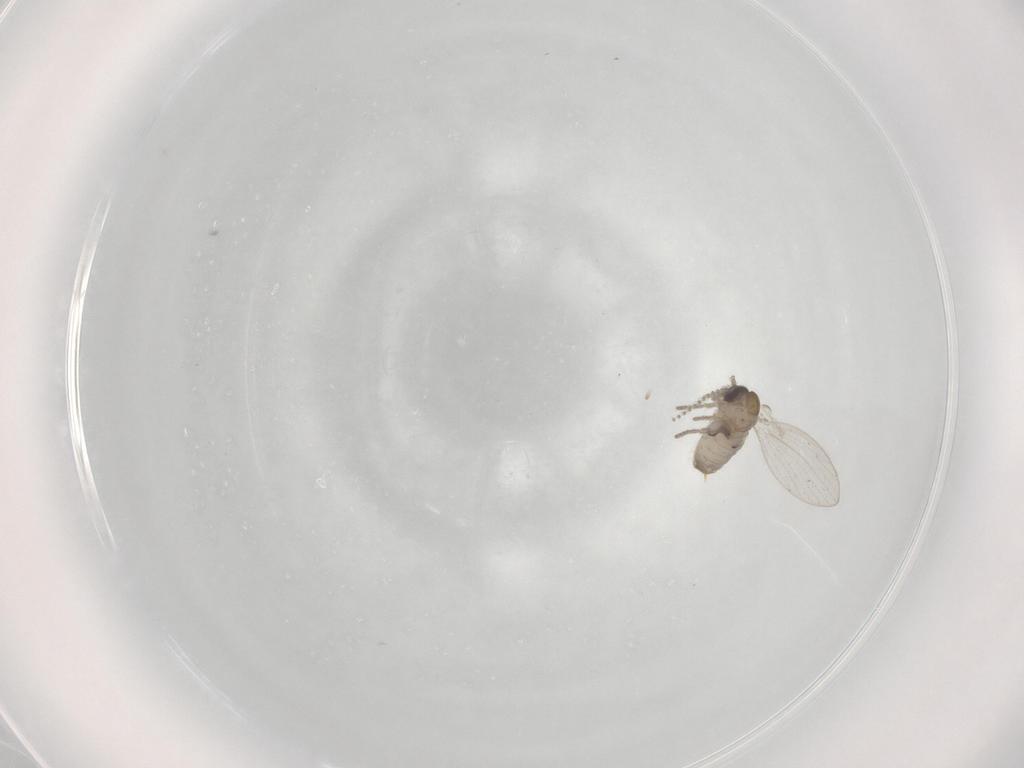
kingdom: Animalia
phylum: Arthropoda
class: Insecta
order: Diptera
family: Psychodidae
